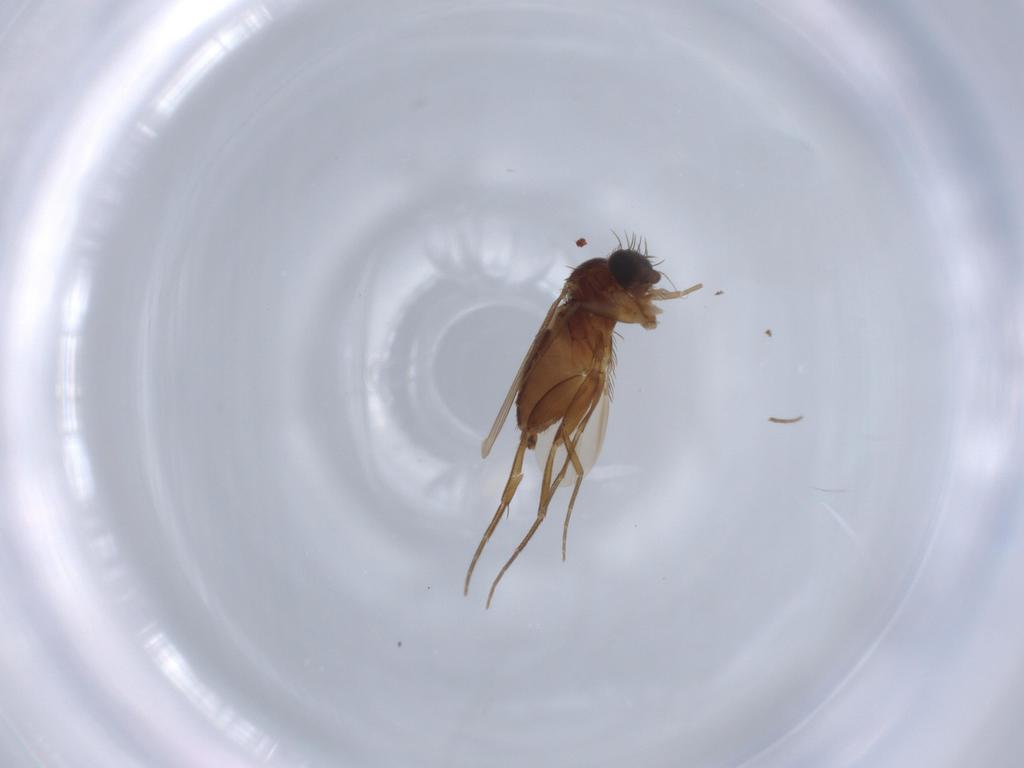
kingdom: Animalia
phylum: Arthropoda
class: Insecta
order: Diptera
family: Phoridae
